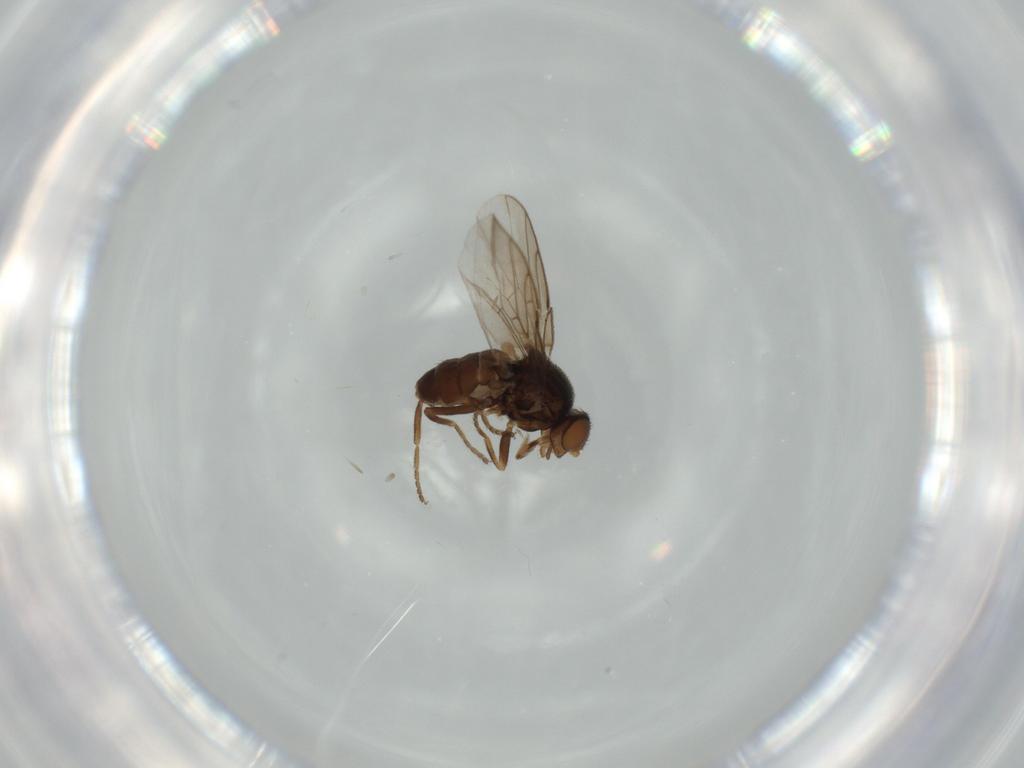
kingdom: Animalia
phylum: Arthropoda
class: Insecta
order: Diptera
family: Chloropidae
